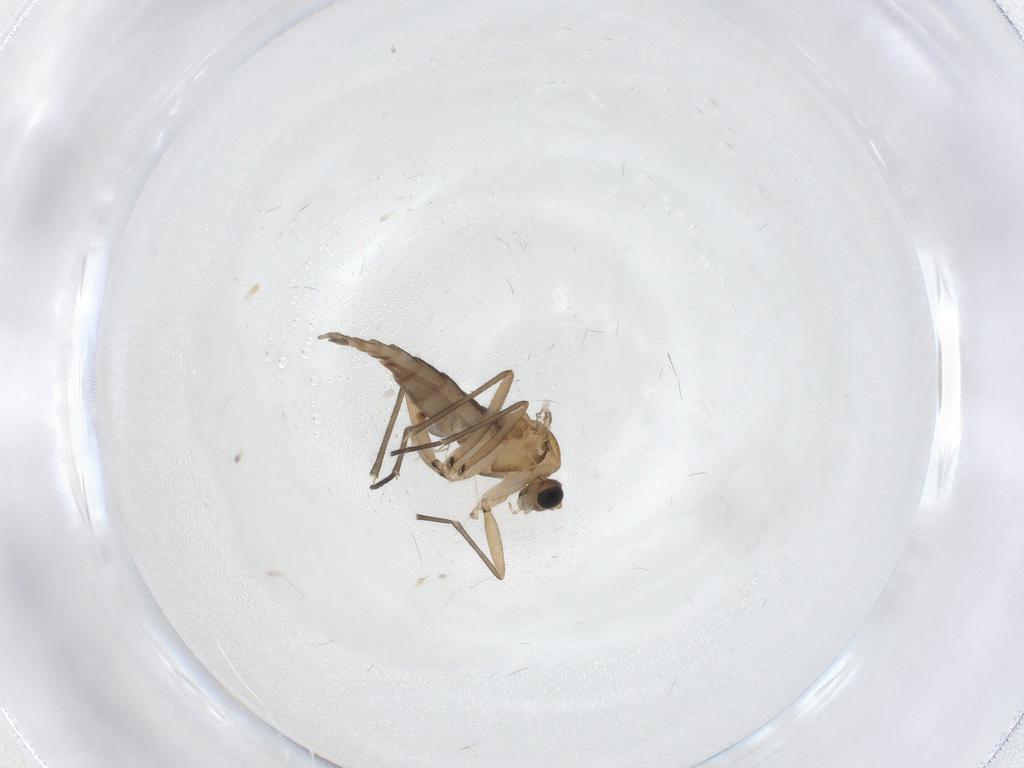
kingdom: Animalia
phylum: Arthropoda
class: Insecta
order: Diptera
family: Sciaridae
